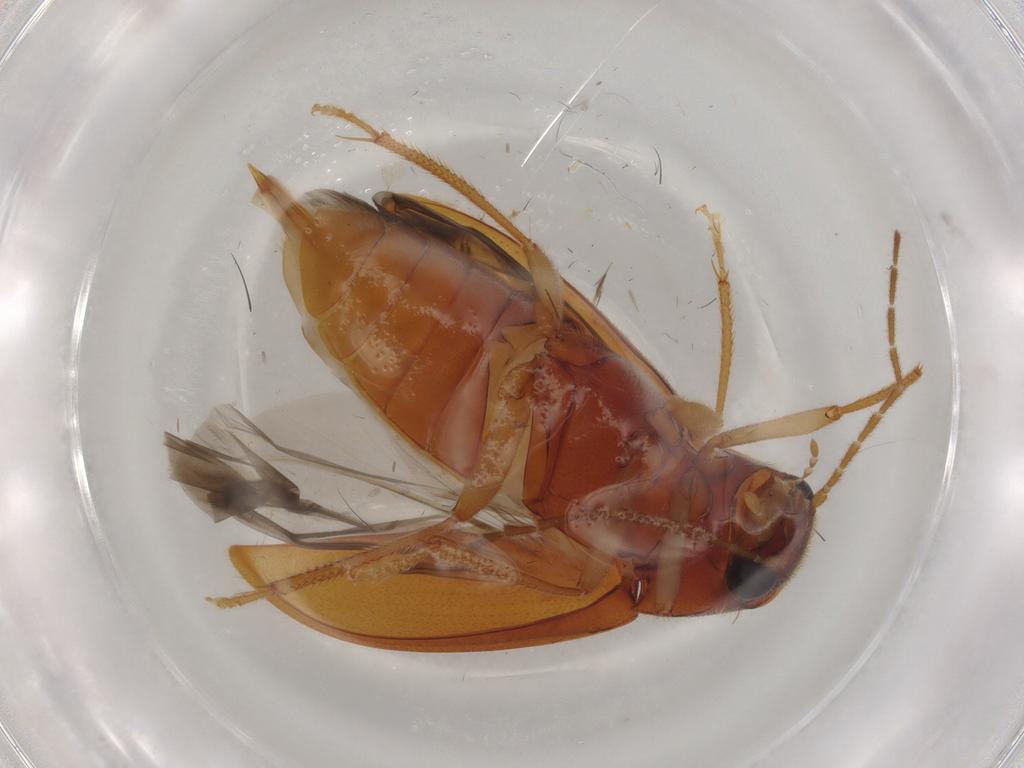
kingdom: Animalia
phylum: Arthropoda
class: Insecta
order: Coleoptera
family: Ptilodactylidae
